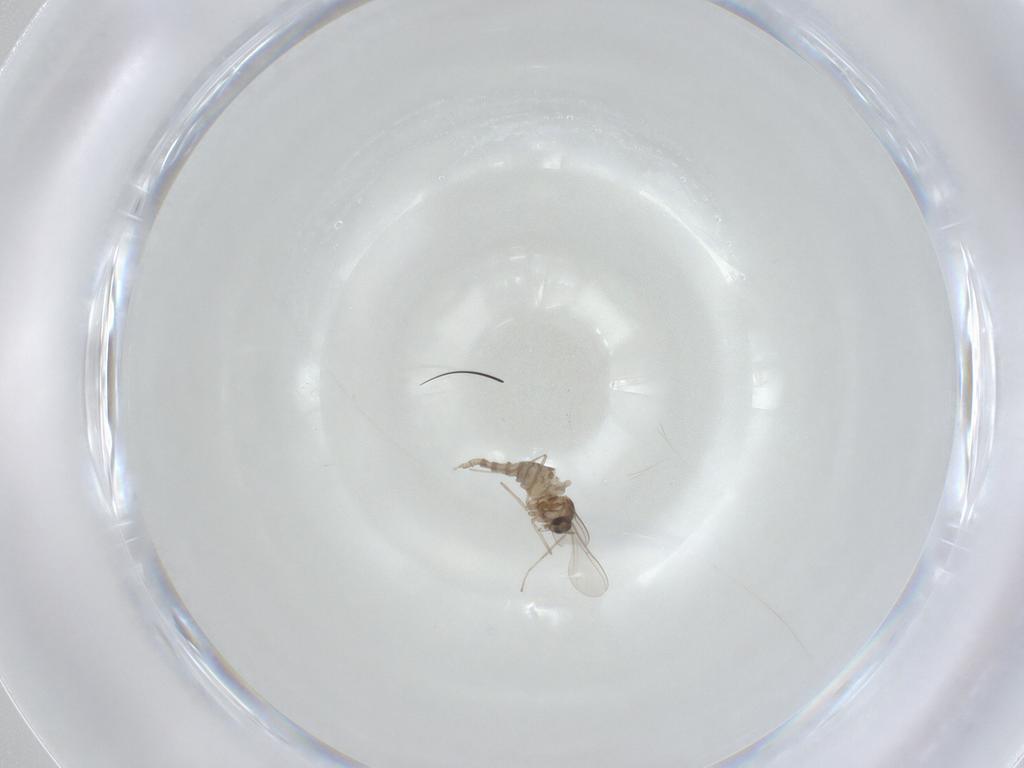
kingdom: Animalia
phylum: Arthropoda
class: Insecta
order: Diptera
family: Cecidomyiidae
